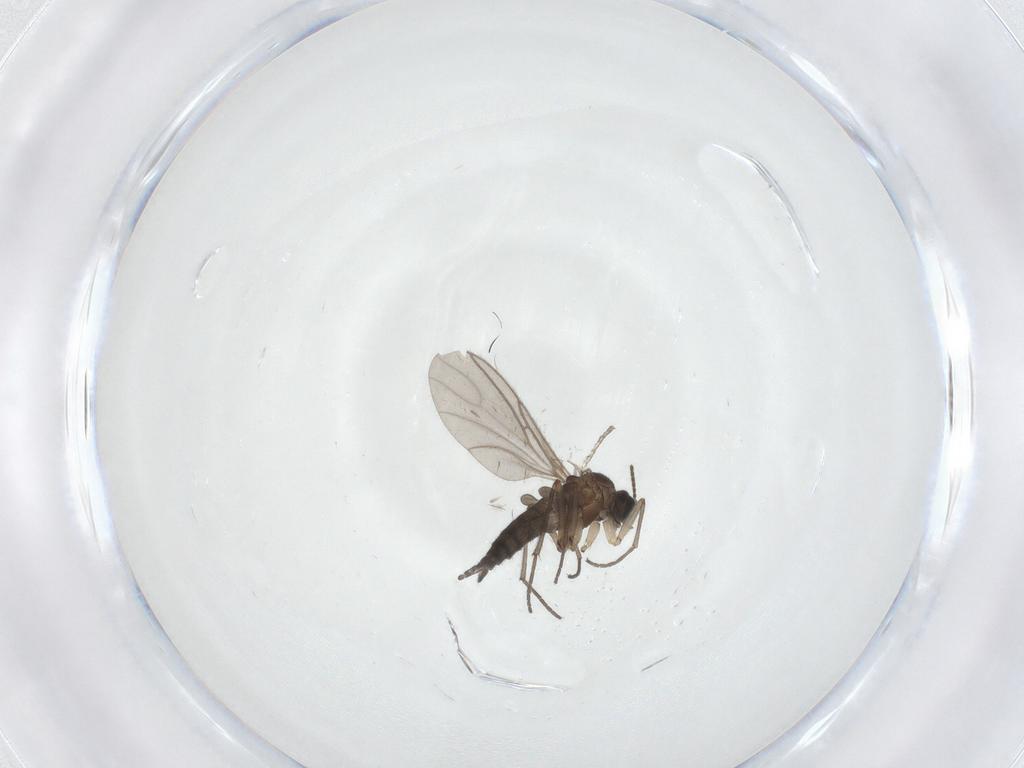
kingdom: Animalia
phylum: Arthropoda
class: Insecta
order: Diptera
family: Sciaridae
